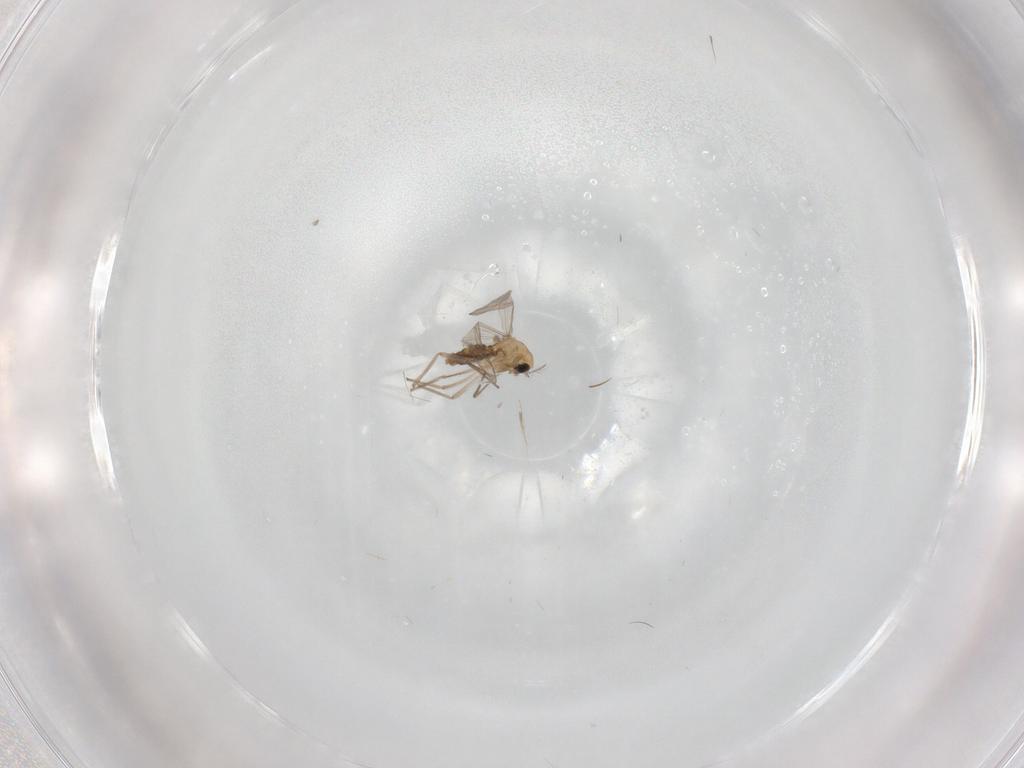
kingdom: Animalia
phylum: Arthropoda
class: Insecta
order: Diptera
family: Chironomidae
